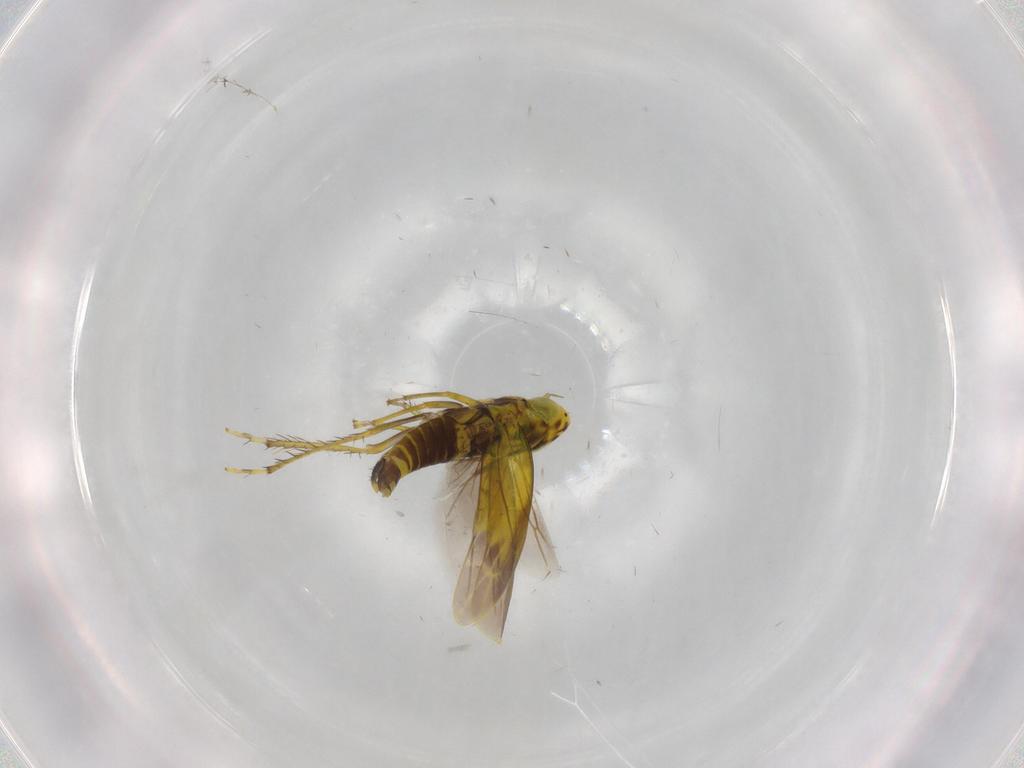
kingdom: Animalia
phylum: Arthropoda
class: Insecta
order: Hemiptera
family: Cicadellidae
